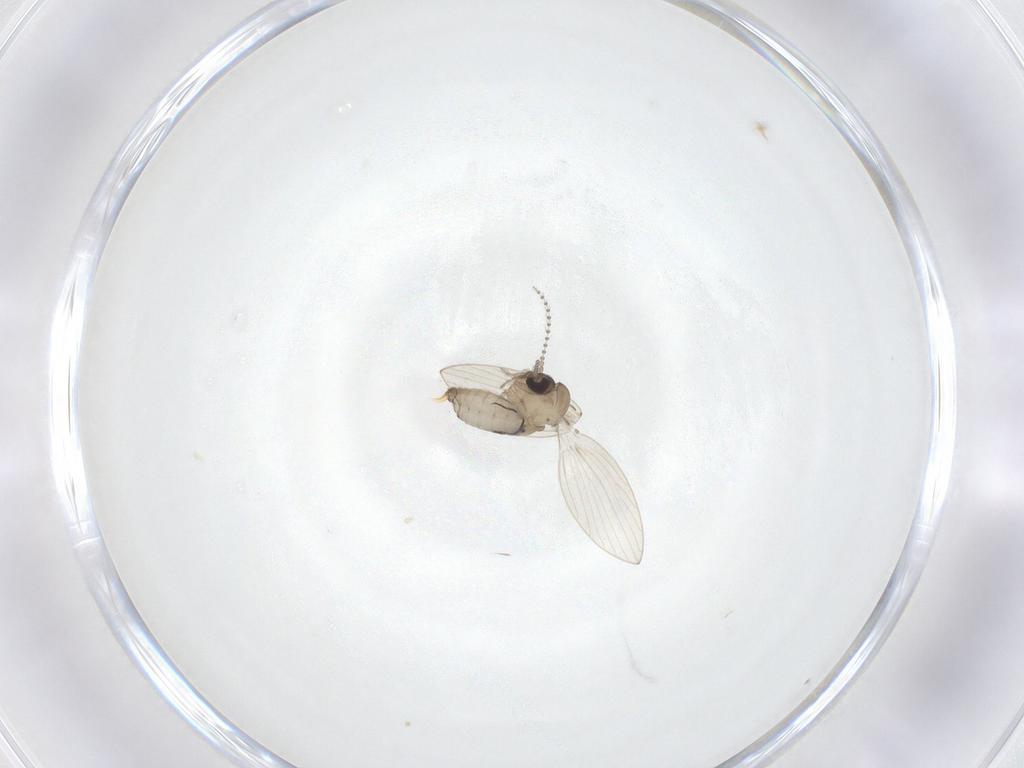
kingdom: Animalia
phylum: Arthropoda
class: Insecta
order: Diptera
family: Psychodidae
